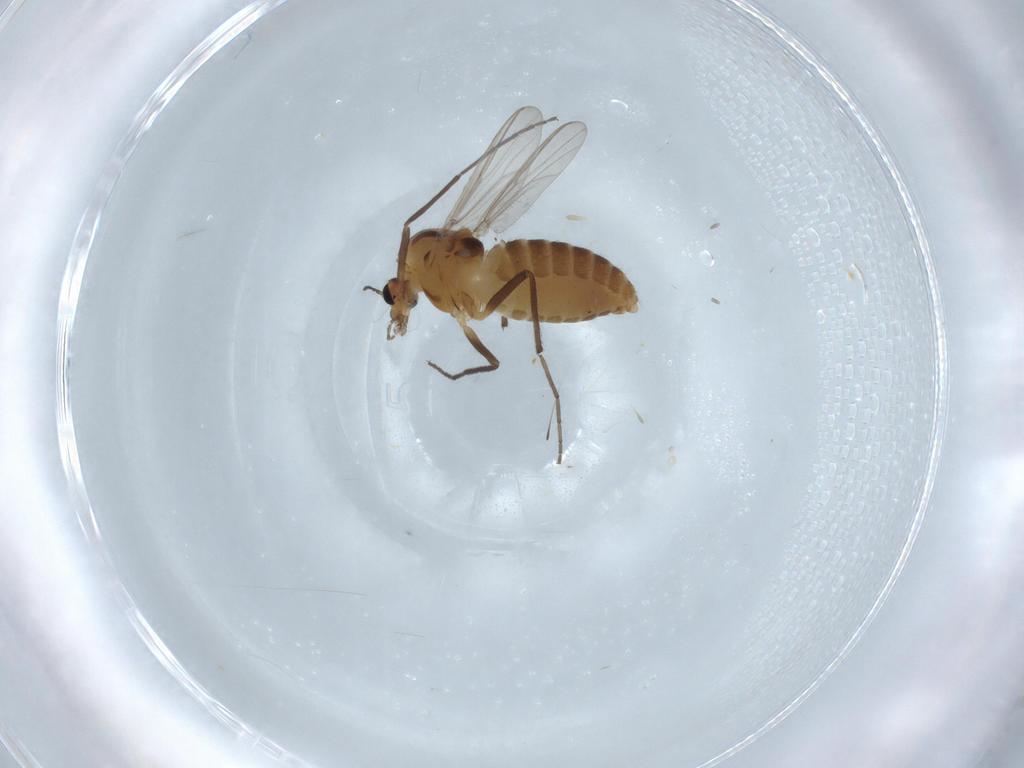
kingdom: Animalia
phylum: Arthropoda
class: Insecta
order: Diptera
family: Chironomidae
